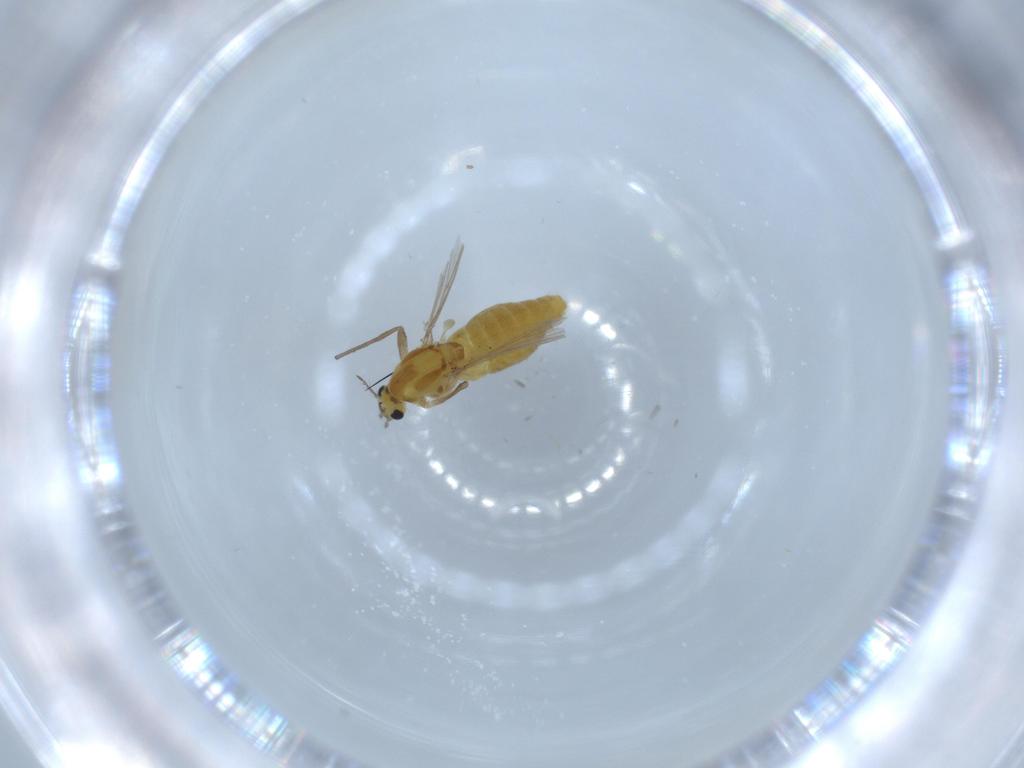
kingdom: Animalia
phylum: Arthropoda
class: Insecta
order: Diptera
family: Chironomidae
